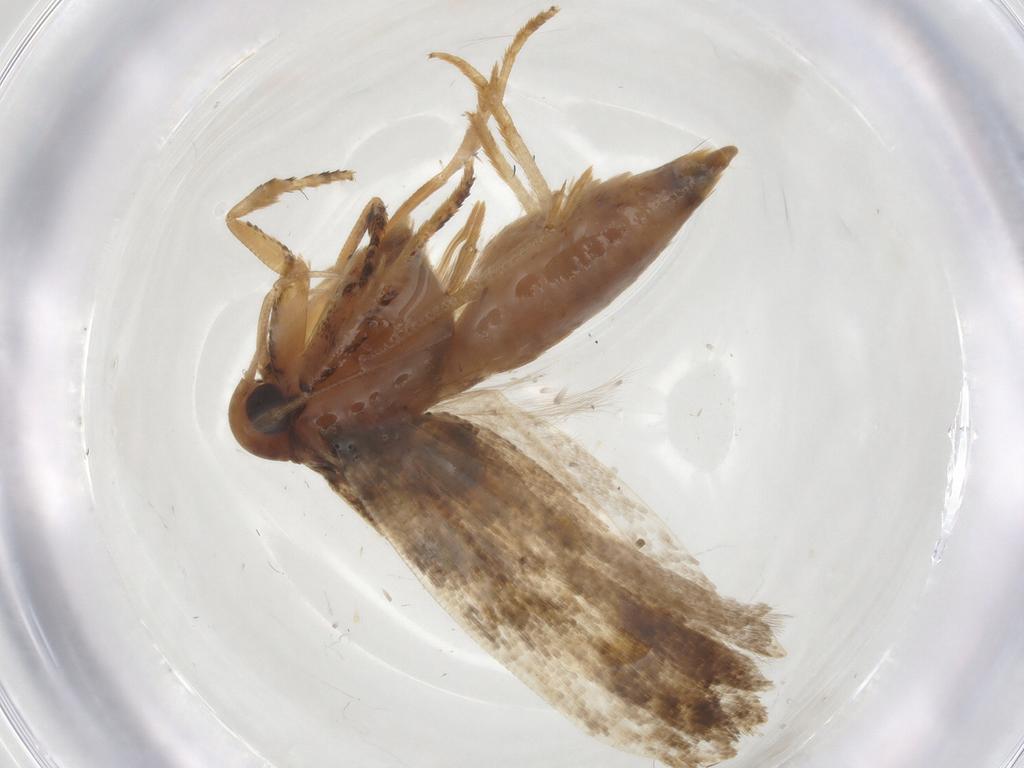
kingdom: Animalia
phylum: Arthropoda
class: Insecta
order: Lepidoptera
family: Gelechiidae
